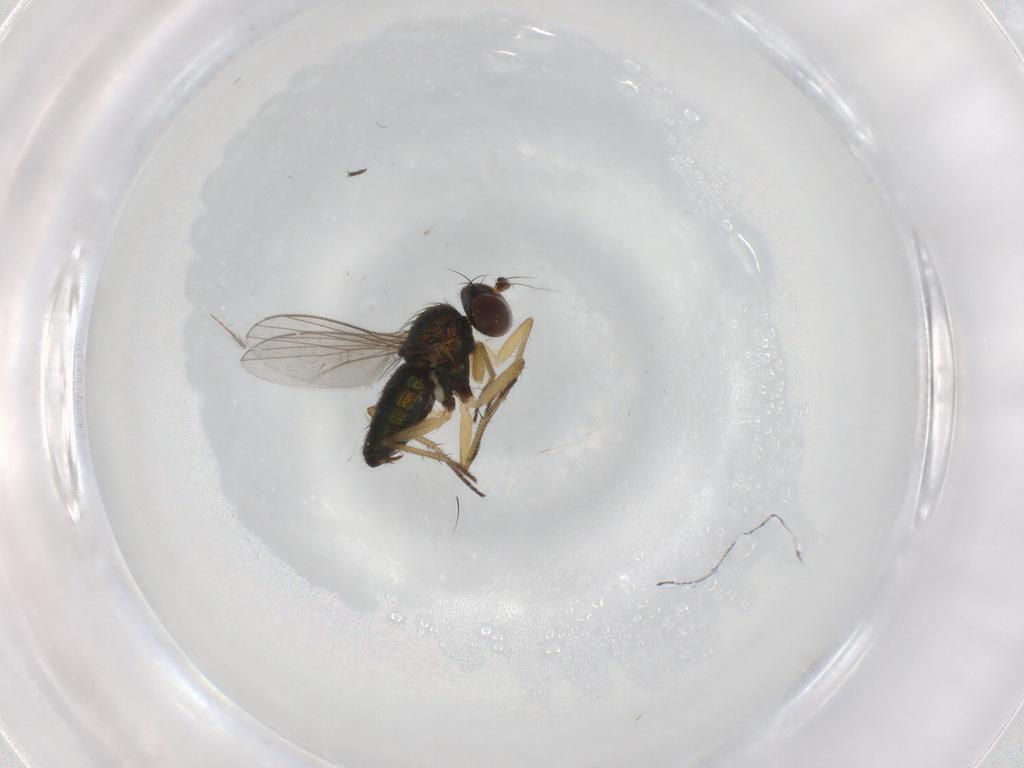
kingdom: Animalia
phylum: Arthropoda
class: Insecta
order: Diptera
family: Dolichopodidae
